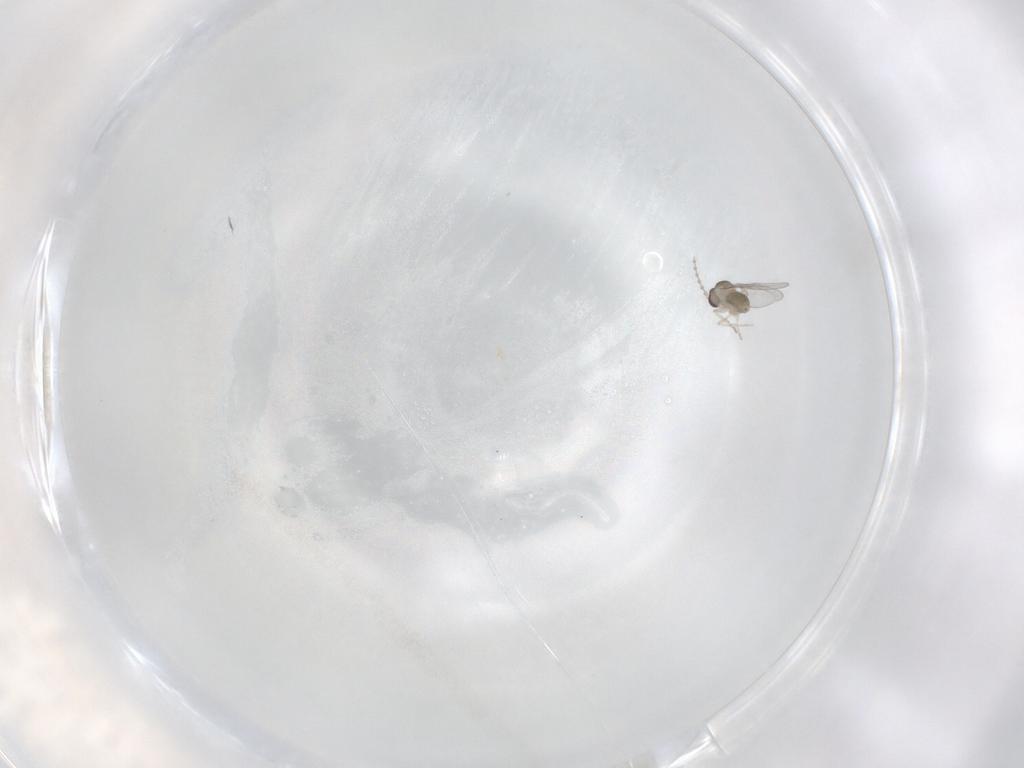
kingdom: Animalia
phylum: Arthropoda
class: Insecta
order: Diptera
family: Cecidomyiidae
